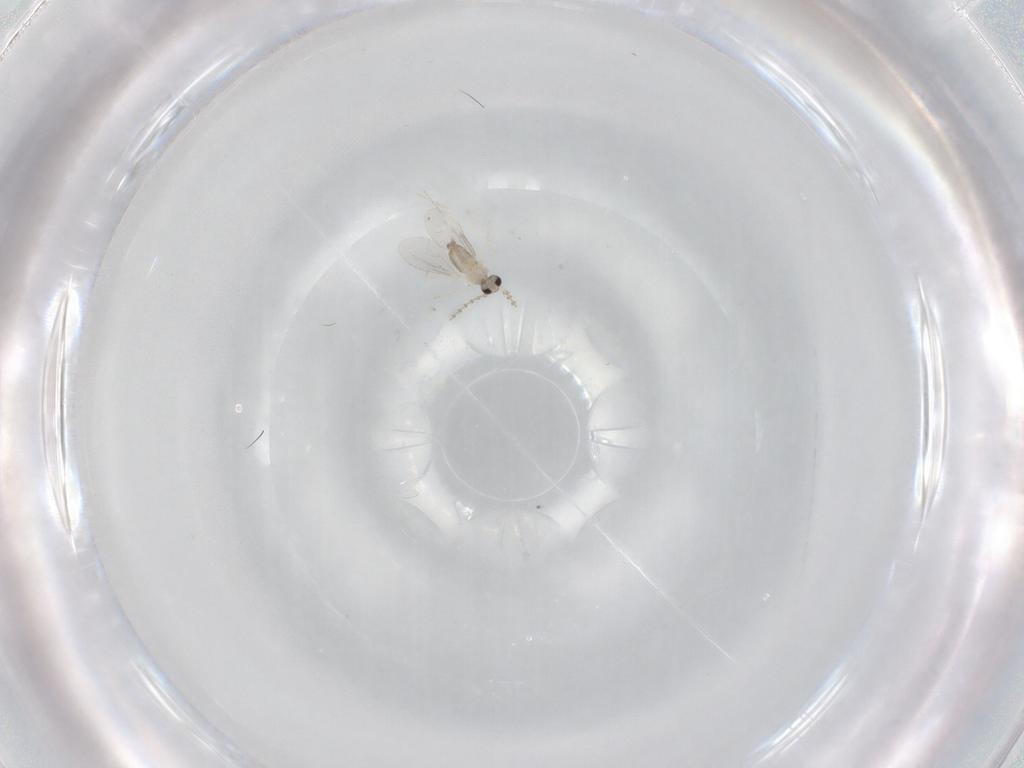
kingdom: Animalia
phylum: Arthropoda
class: Insecta
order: Diptera
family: Cecidomyiidae
